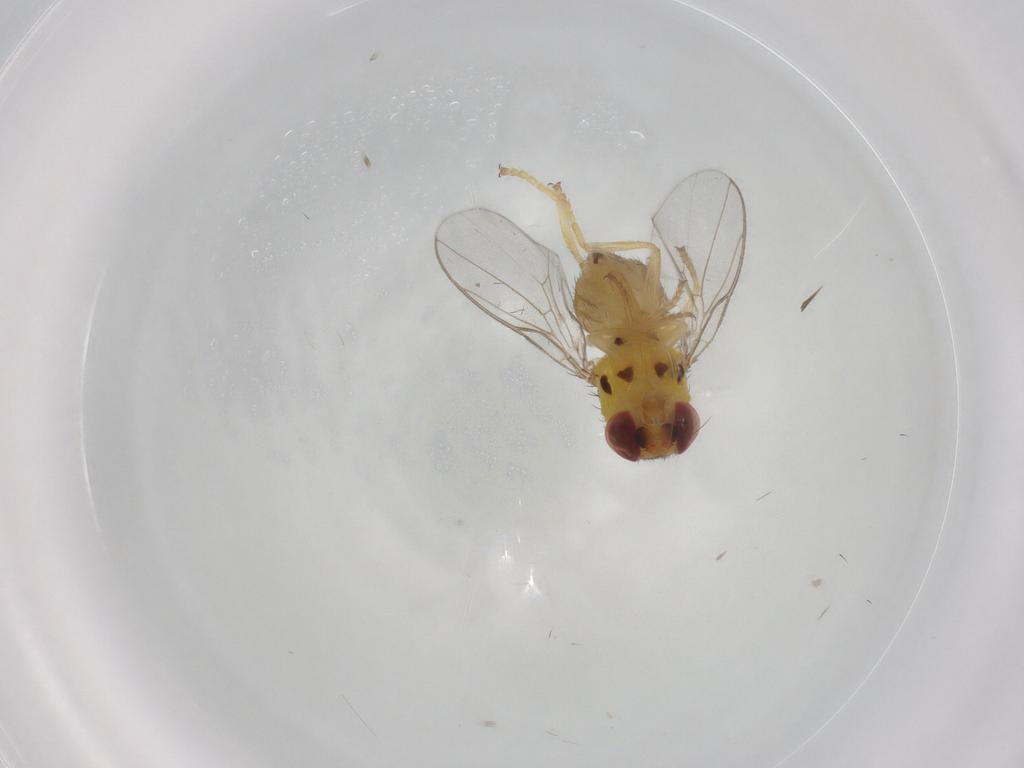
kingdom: Animalia
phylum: Arthropoda
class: Insecta
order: Diptera
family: Chloropidae
